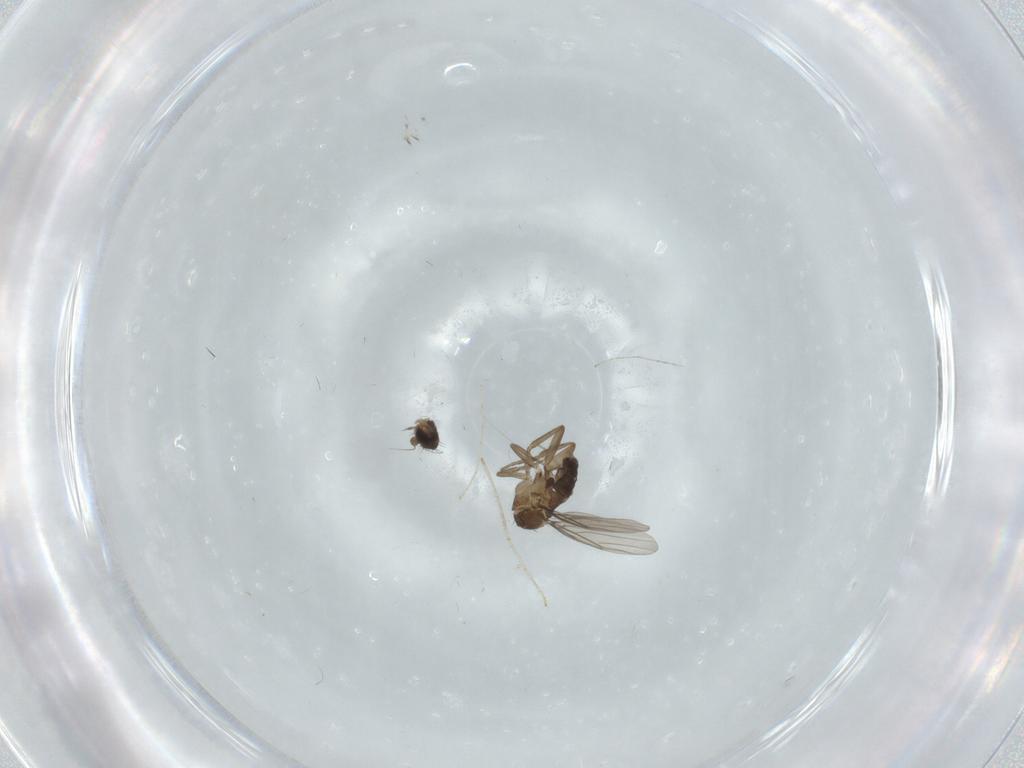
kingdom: Animalia
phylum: Arthropoda
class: Insecta
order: Diptera
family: Phoridae
